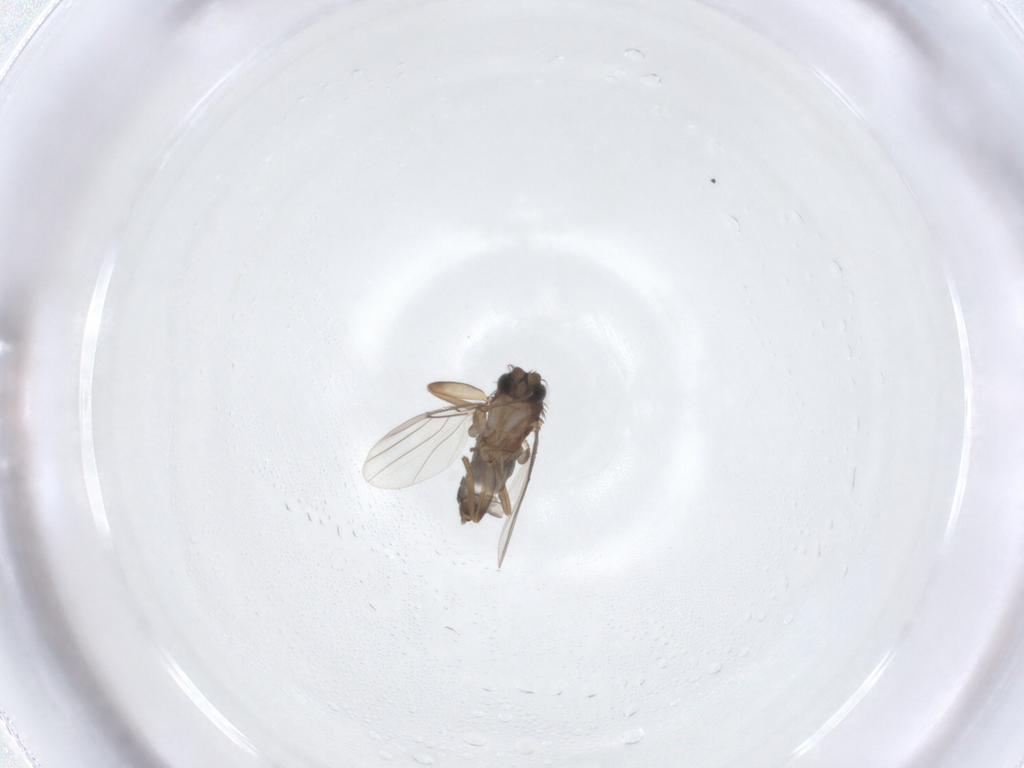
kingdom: Animalia
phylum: Arthropoda
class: Insecta
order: Diptera
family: Phoridae
